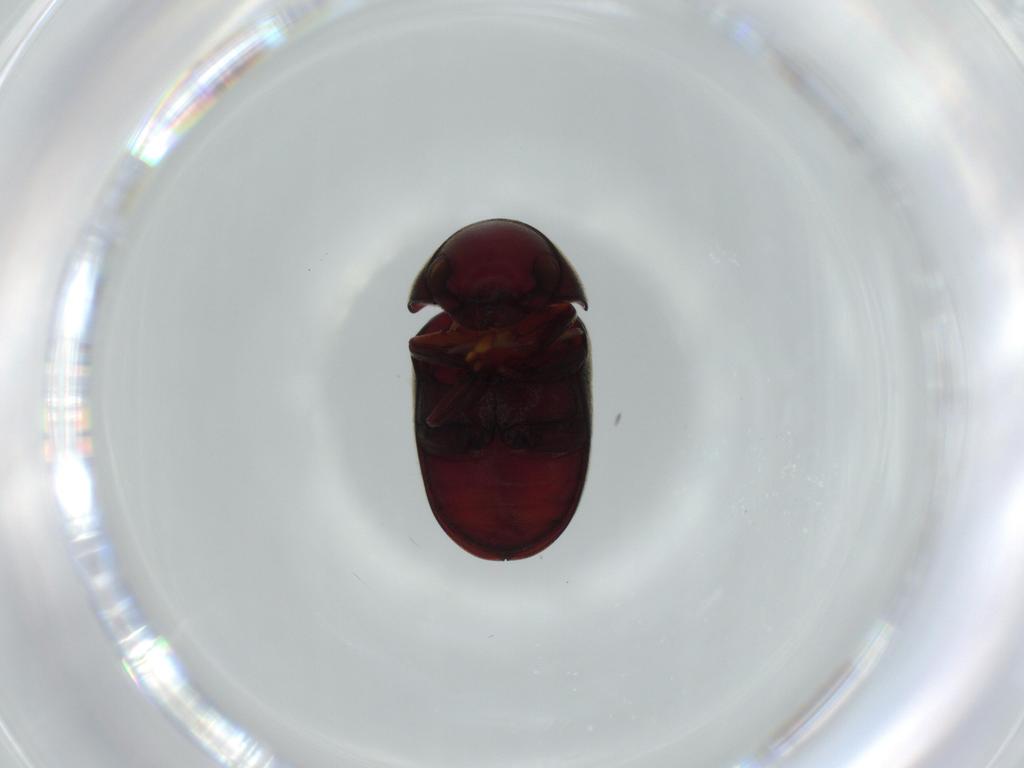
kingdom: Animalia
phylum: Arthropoda
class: Insecta
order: Coleoptera
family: Ptinidae
